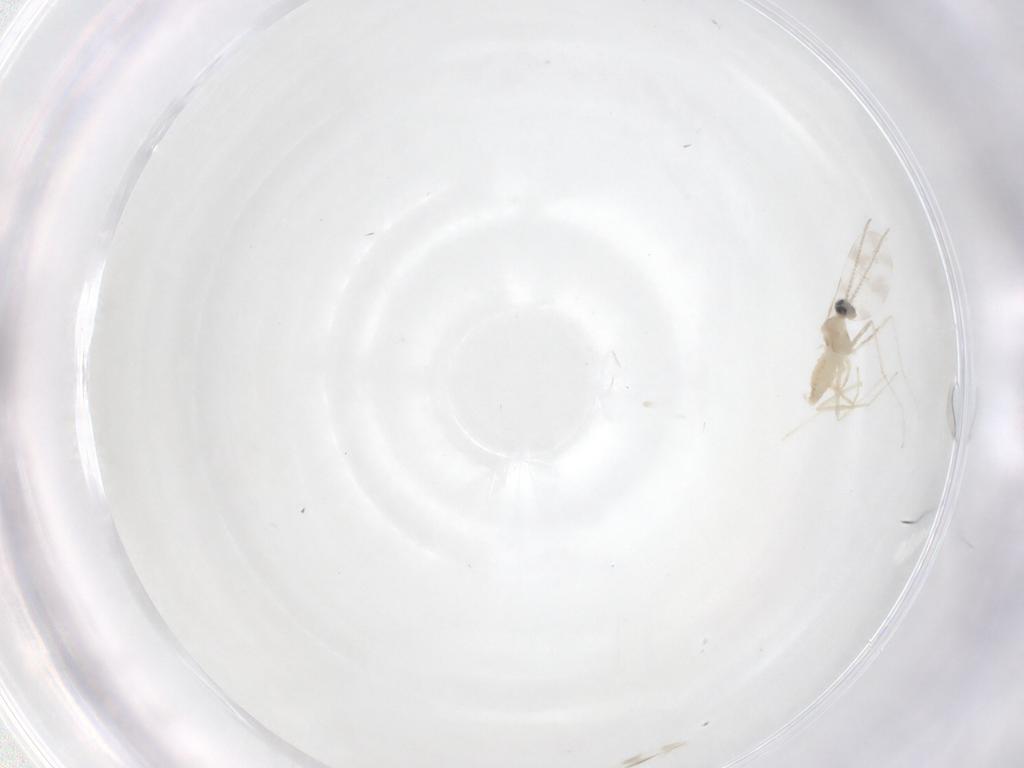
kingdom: Animalia
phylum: Arthropoda
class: Insecta
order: Diptera
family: Cecidomyiidae
